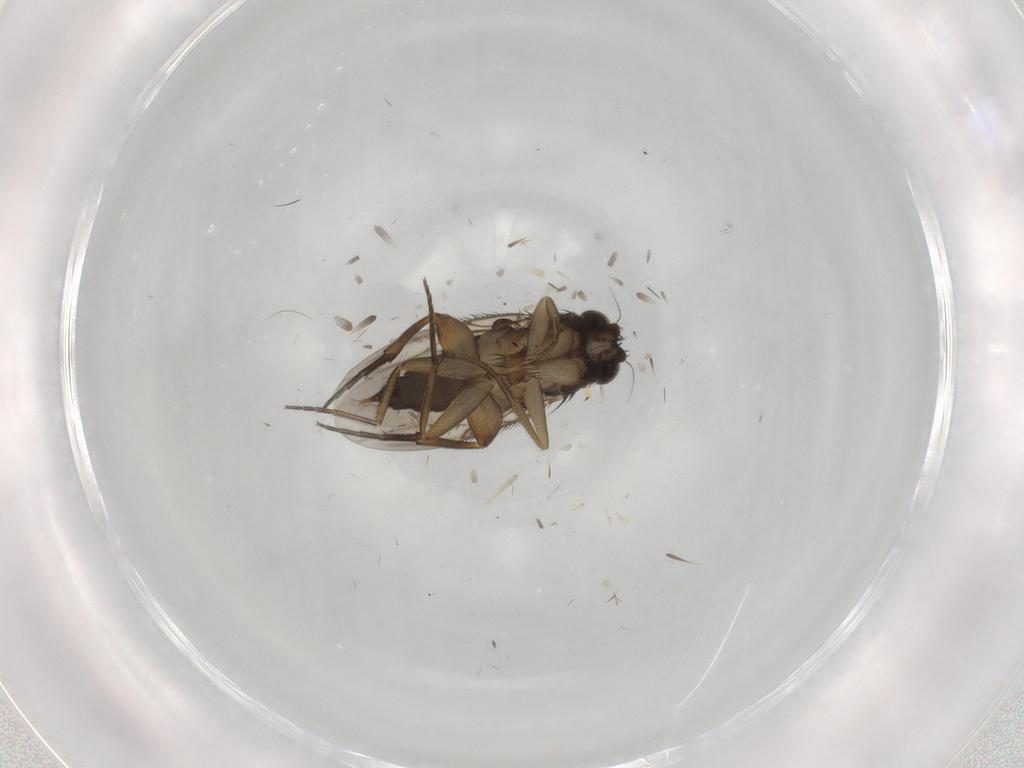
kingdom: Animalia
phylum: Arthropoda
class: Insecta
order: Diptera
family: Phoridae
